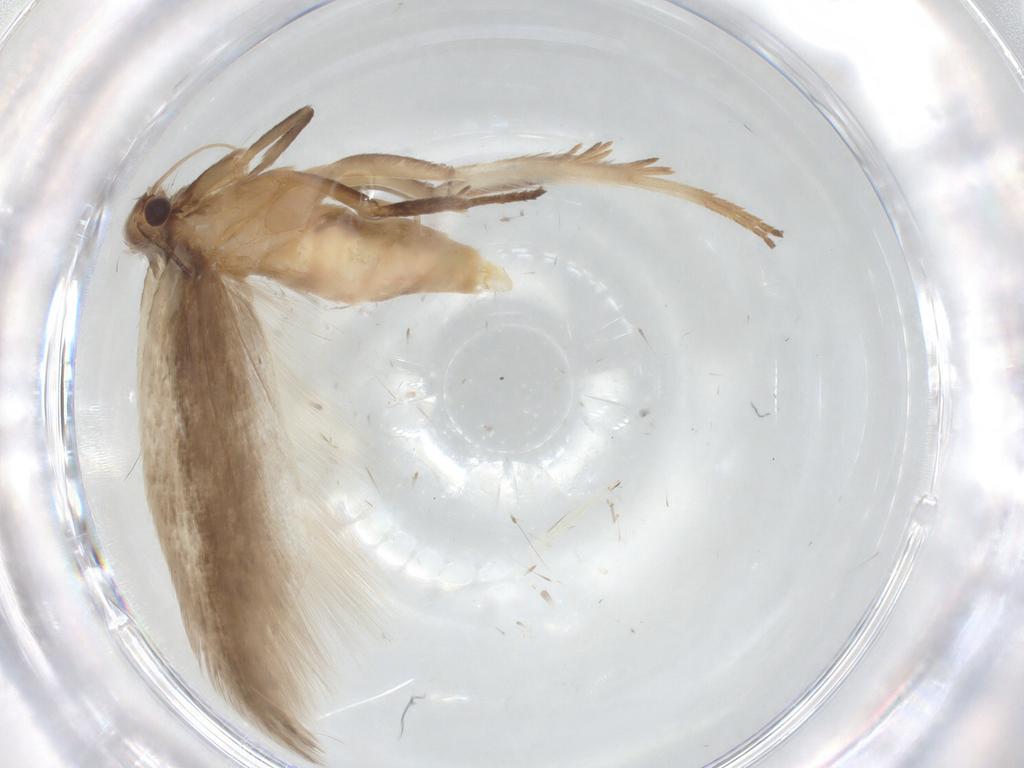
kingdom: Animalia
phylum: Arthropoda
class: Insecta
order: Lepidoptera
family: Gelechiidae
